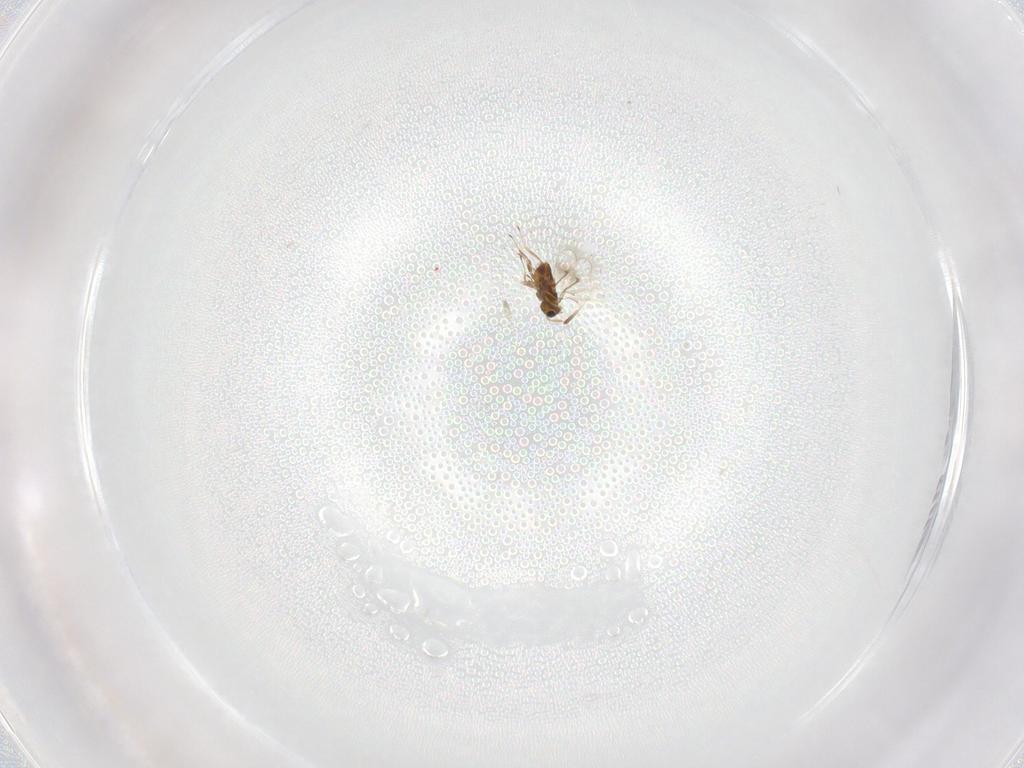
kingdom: Animalia
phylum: Arthropoda
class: Insecta
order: Hymenoptera
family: Trichogrammatidae
